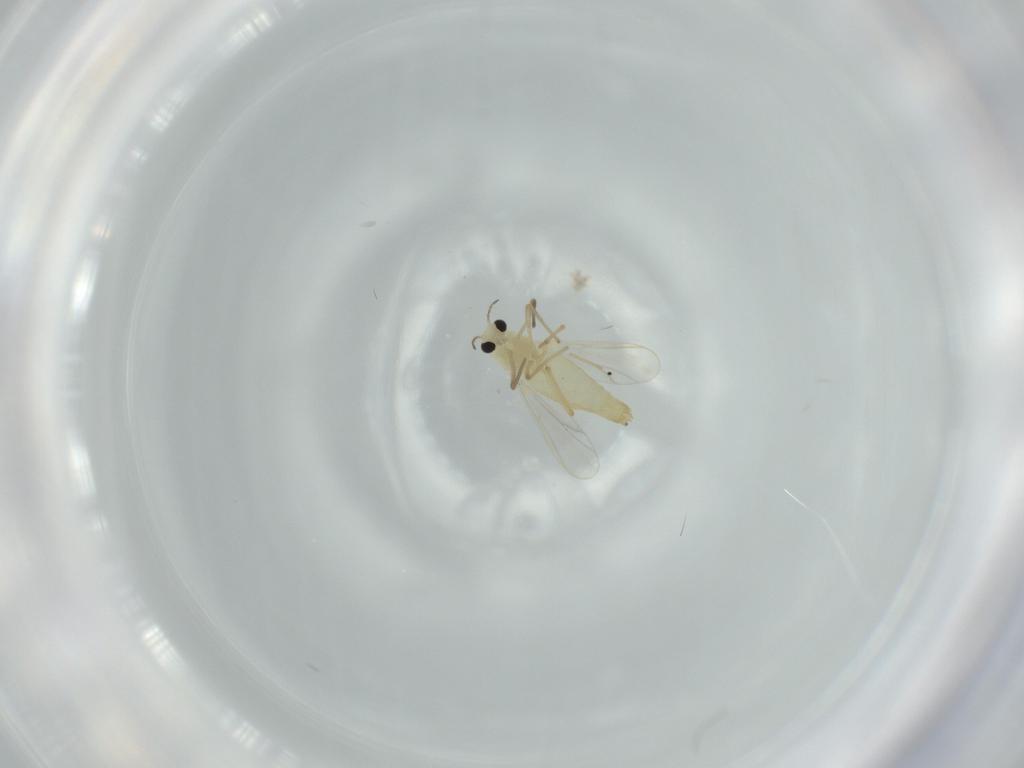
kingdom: Animalia
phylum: Arthropoda
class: Insecta
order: Diptera
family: Chironomidae
